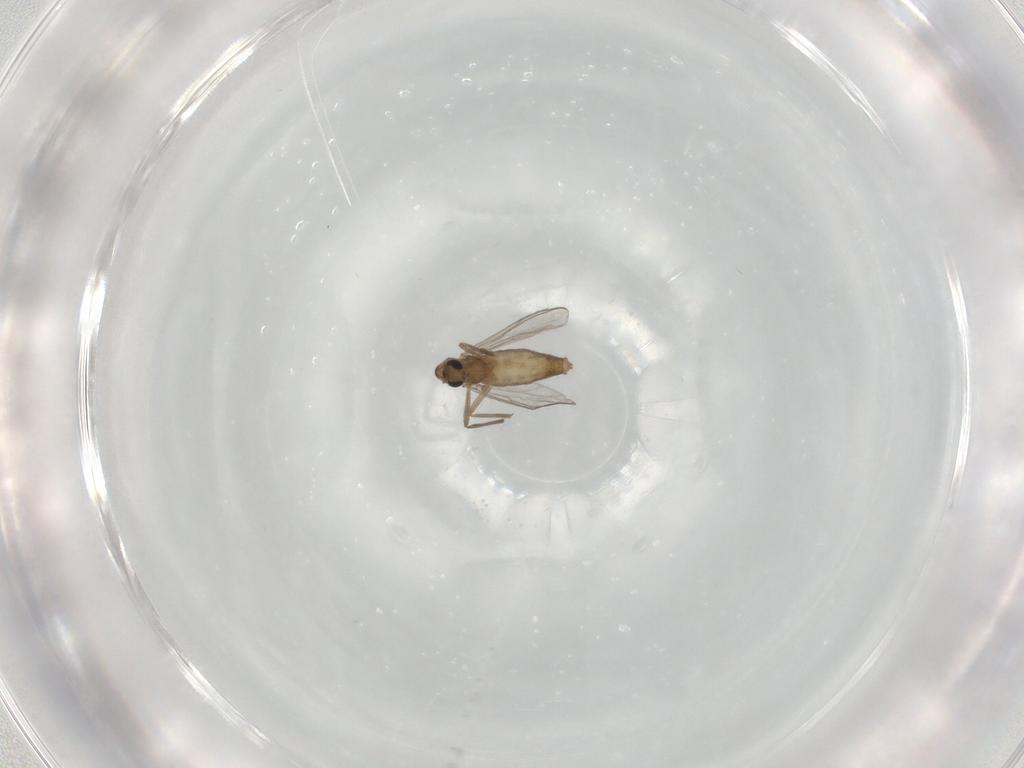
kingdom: Animalia
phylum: Arthropoda
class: Insecta
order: Diptera
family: Chironomidae
